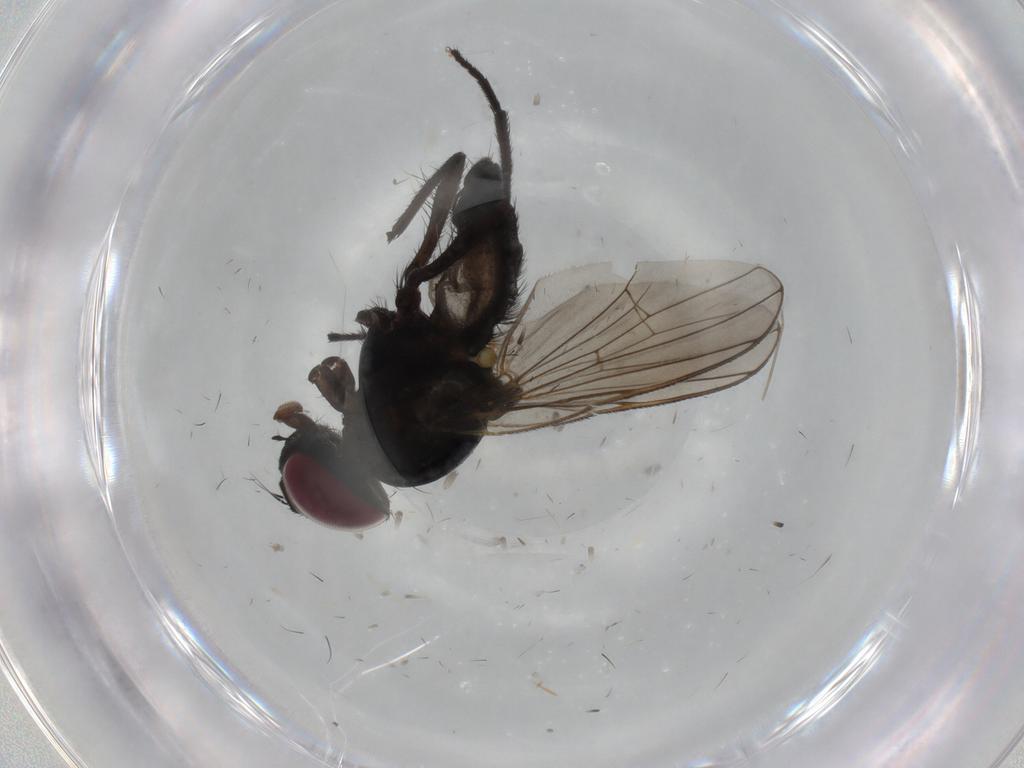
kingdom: Animalia
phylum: Arthropoda
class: Insecta
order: Diptera
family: Fannia
